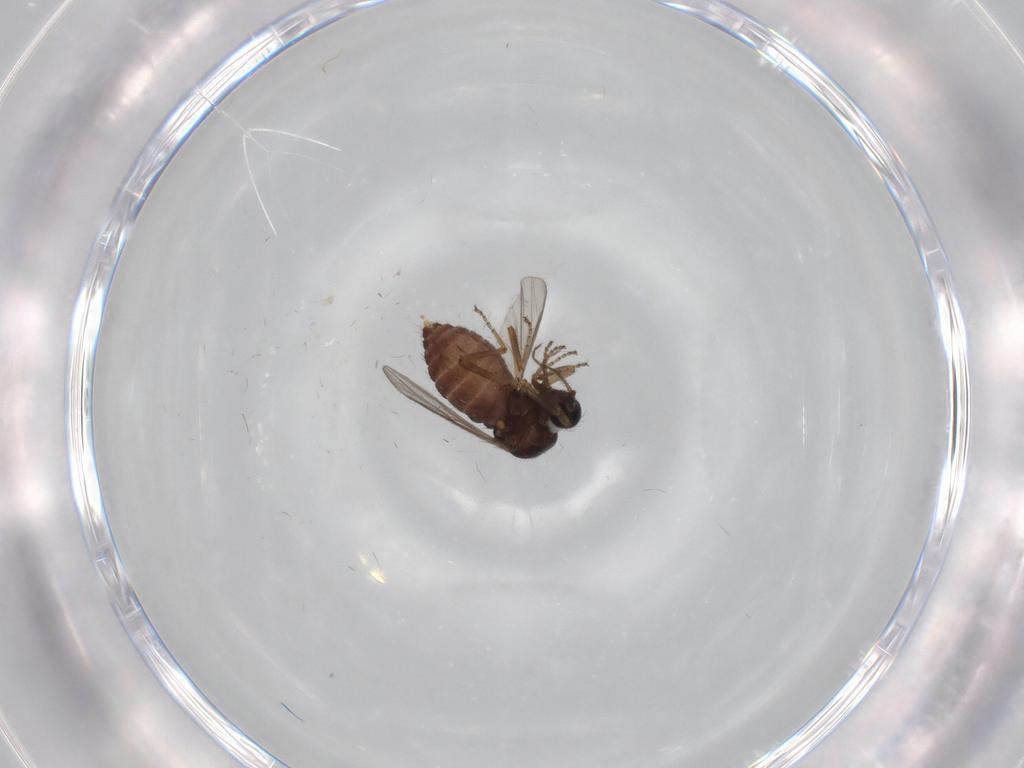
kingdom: Animalia
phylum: Arthropoda
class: Insecta
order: Diptera
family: Ceratopogonidae
